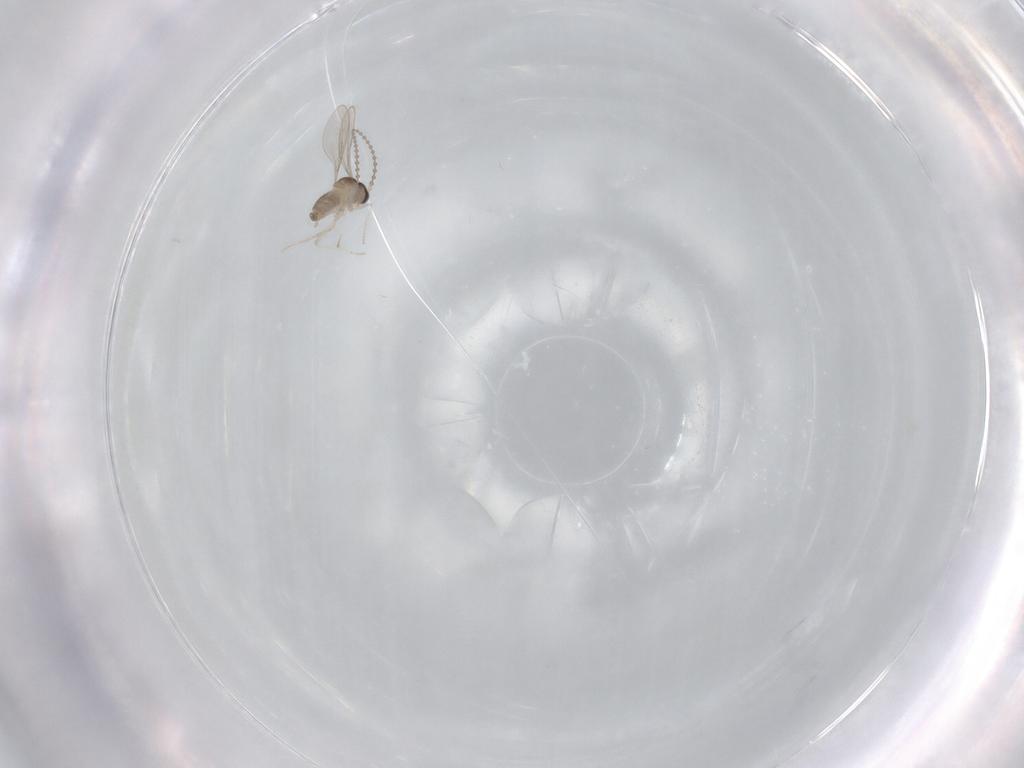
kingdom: Animalia
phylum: Arthropoda
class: Insecta
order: Diptera
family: Cecidomyiidae
